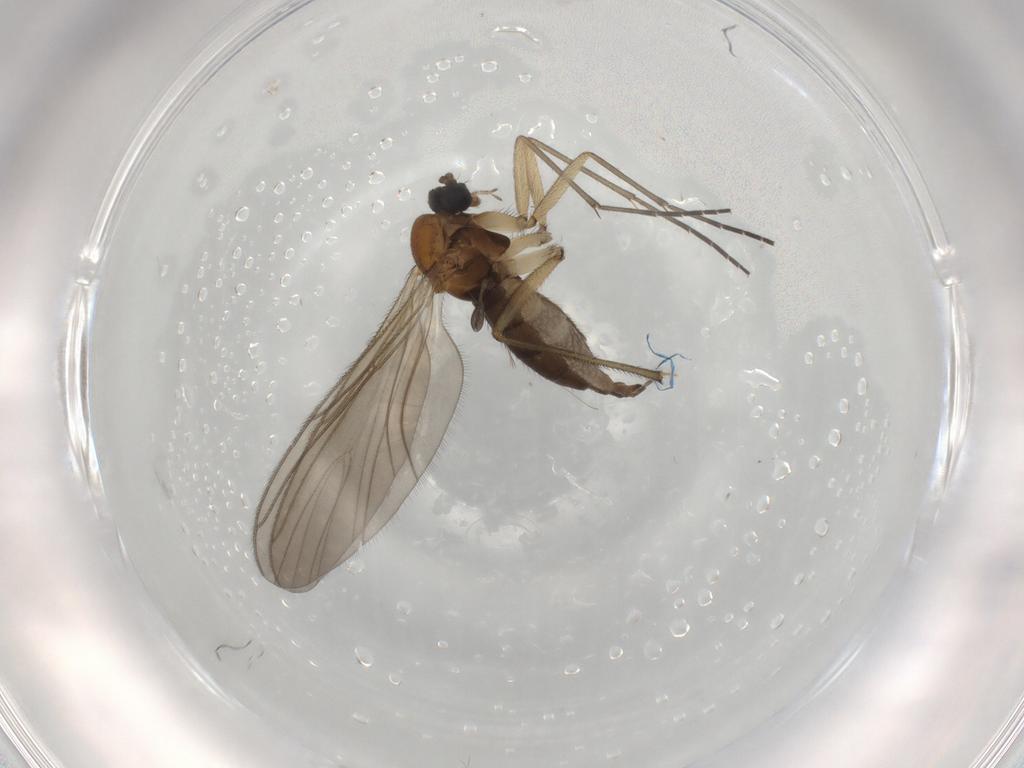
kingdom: Animalia
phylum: Arthropoda
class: Insecta
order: Diptera
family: Sciaridae
